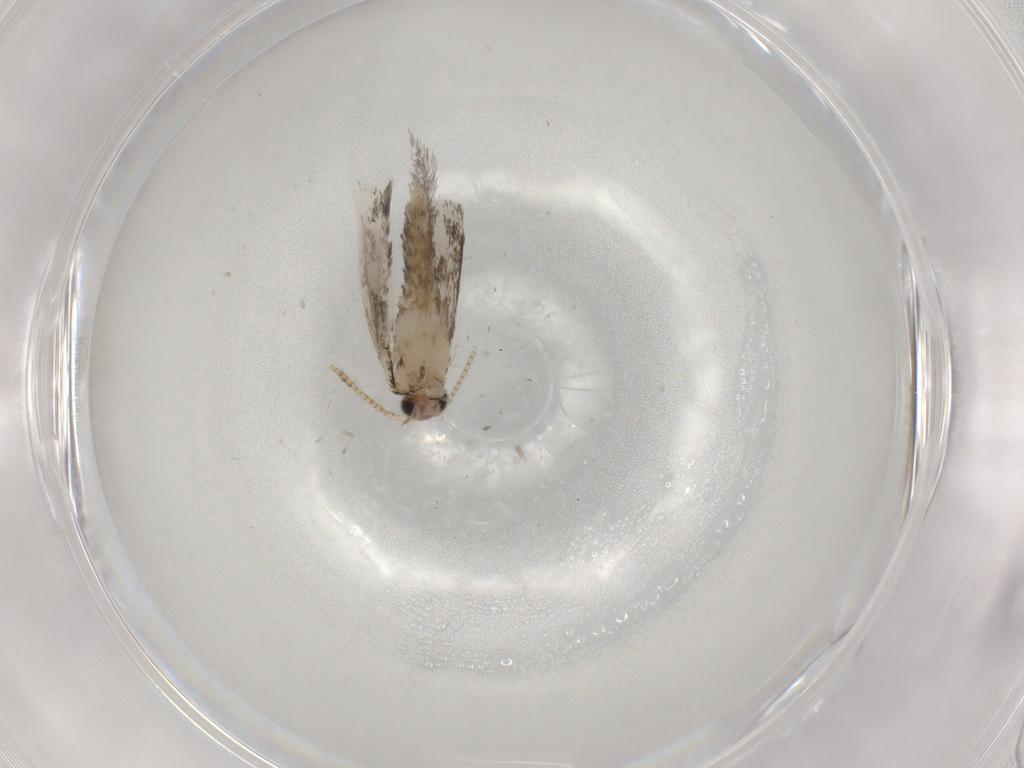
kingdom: Animalia
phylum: Arthropoda
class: Insecta
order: Lepidoptera
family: Tineidae
